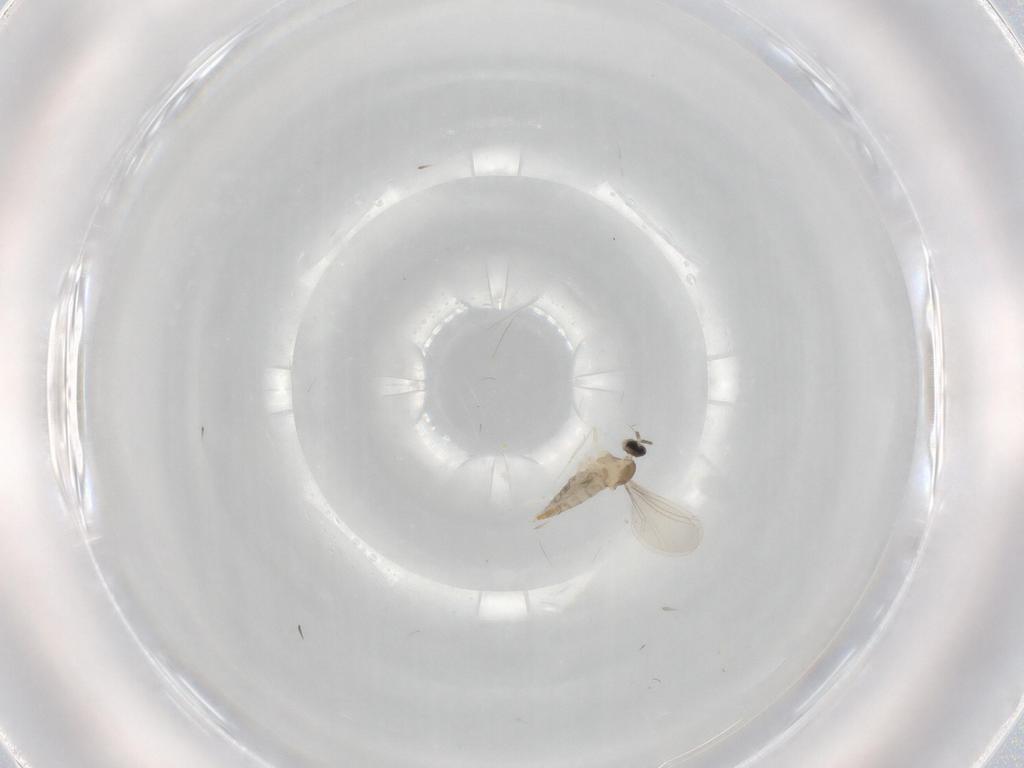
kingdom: Animalia
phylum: Arthropoda
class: Insecta
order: Diptera
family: Cecidomyiidae
